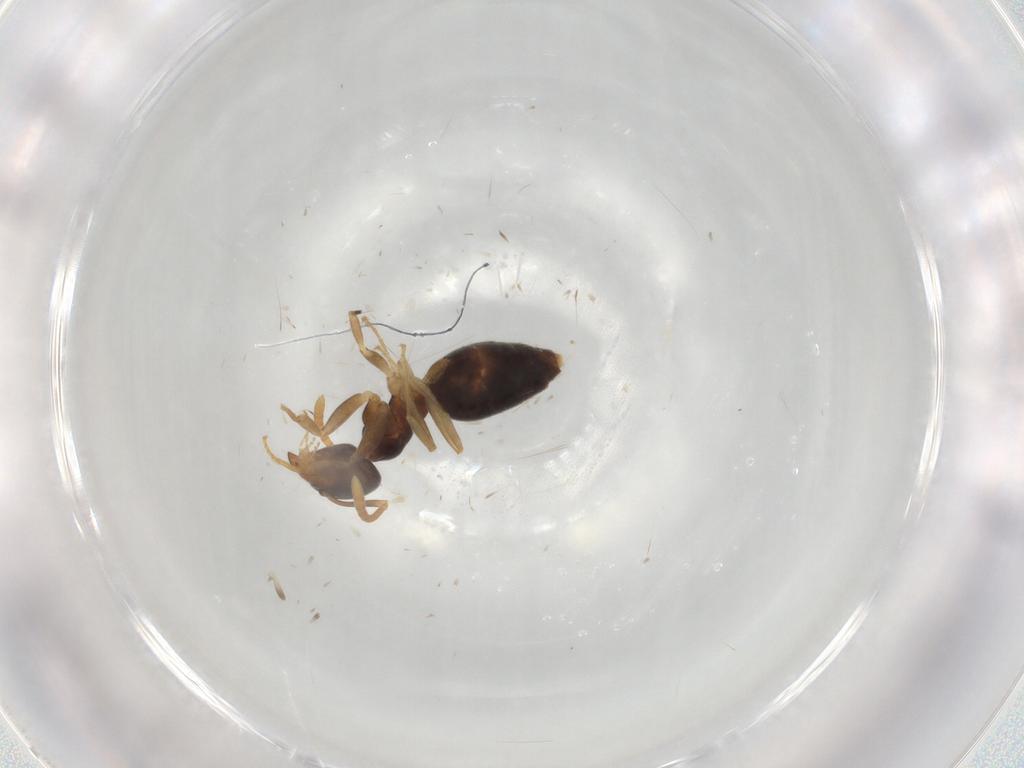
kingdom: Animalia
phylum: Arthropoda
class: Insecta
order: Hymenoptera
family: Formicidae
